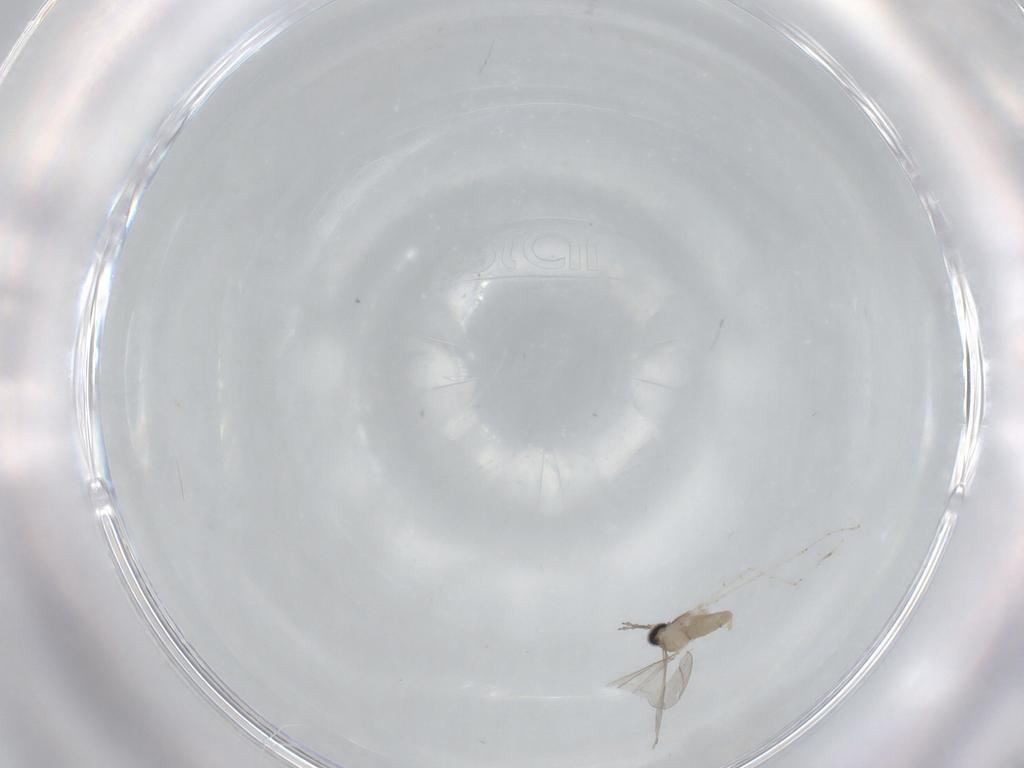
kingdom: Animalia
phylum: Arthropoda
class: Insecta
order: Diptera
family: Cecidomyiidae
